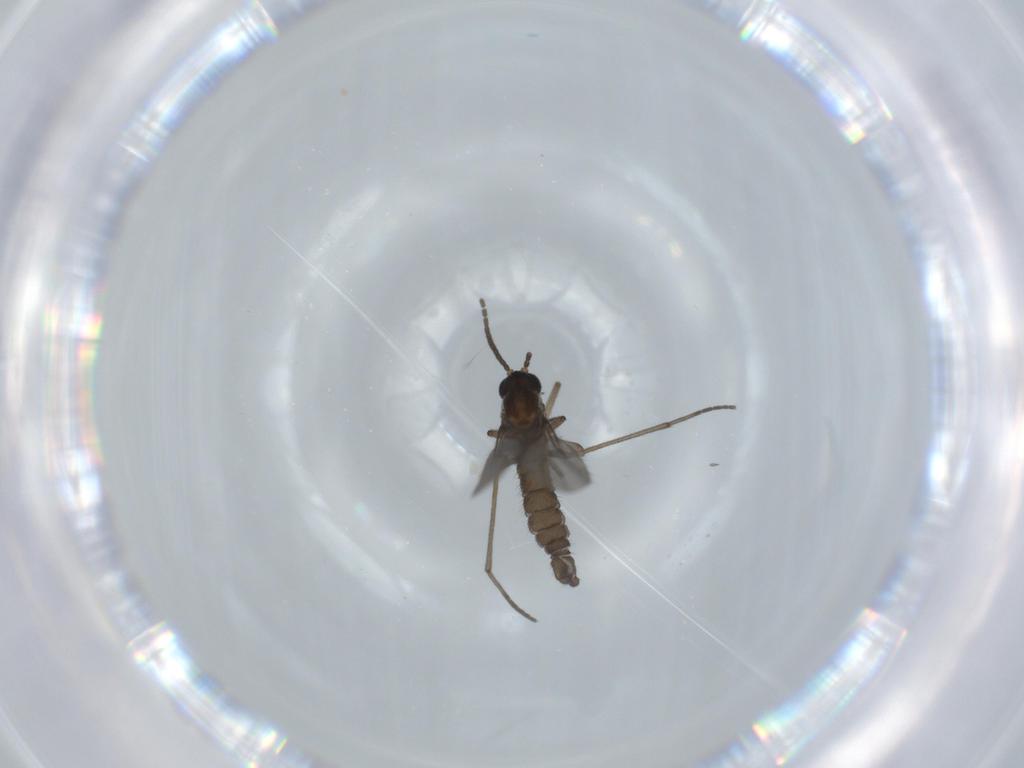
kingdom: Animalia
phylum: Arthropoda
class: Insecta
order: Diptera
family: Sciaridae
